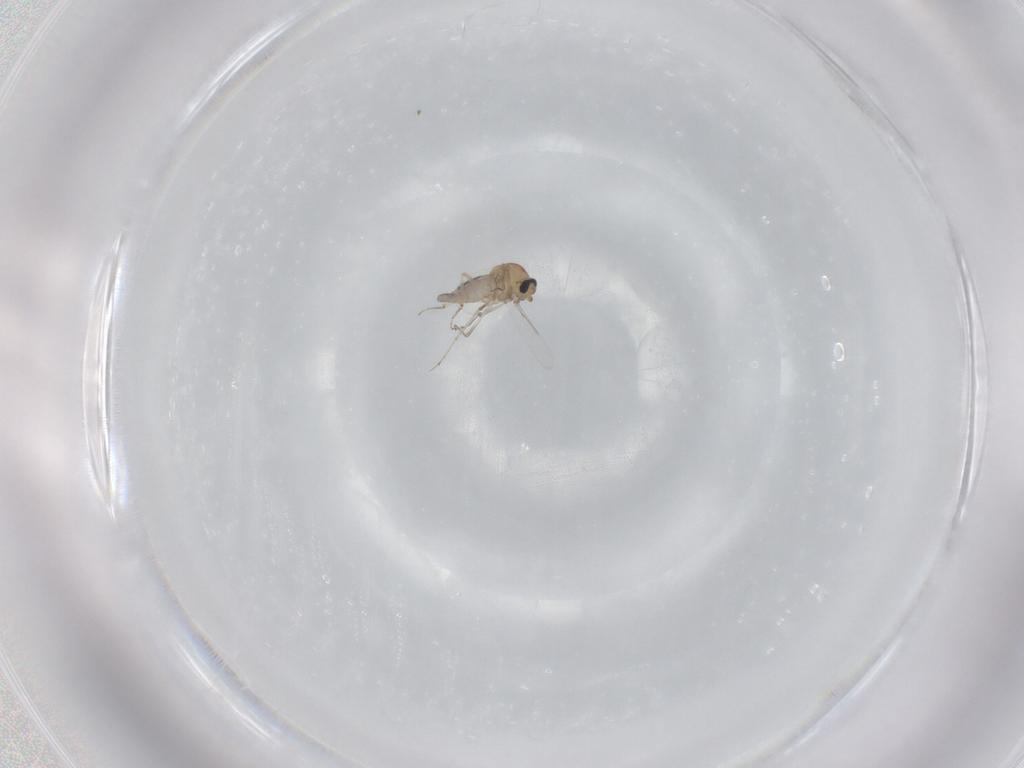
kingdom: Animalia
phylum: Arthropoda
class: Insecta
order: Diptera
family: Ceratopogonidae
